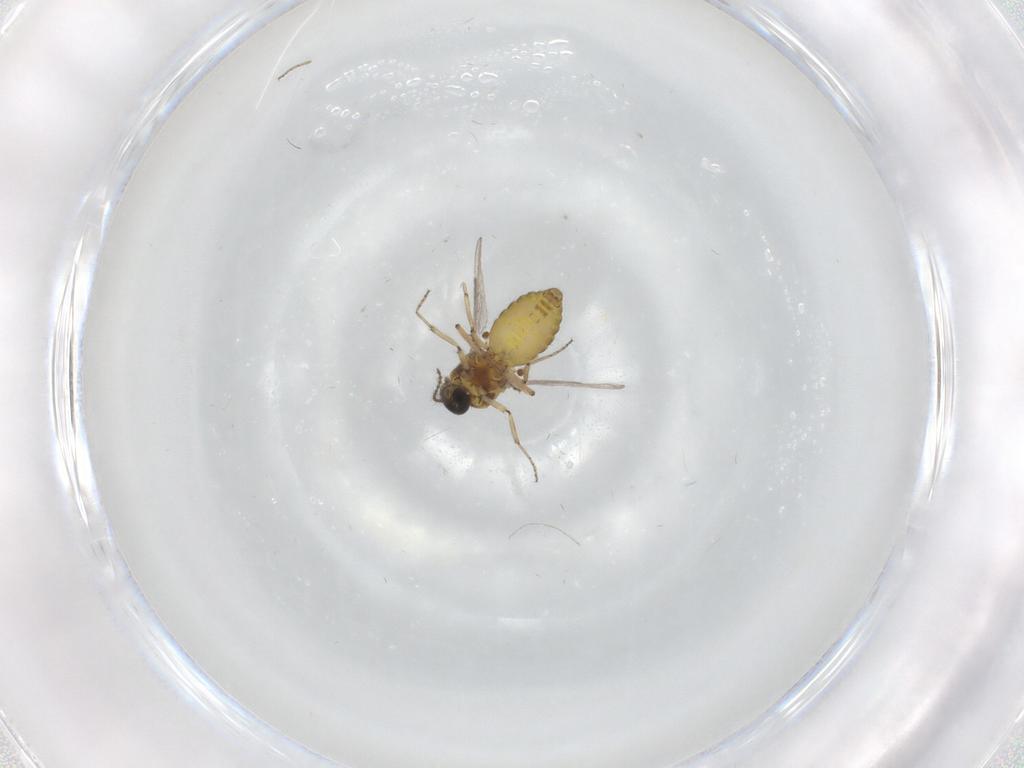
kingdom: Animalia
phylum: Arthropoda
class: Insecta
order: Diptera
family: Ceratopogonidae
